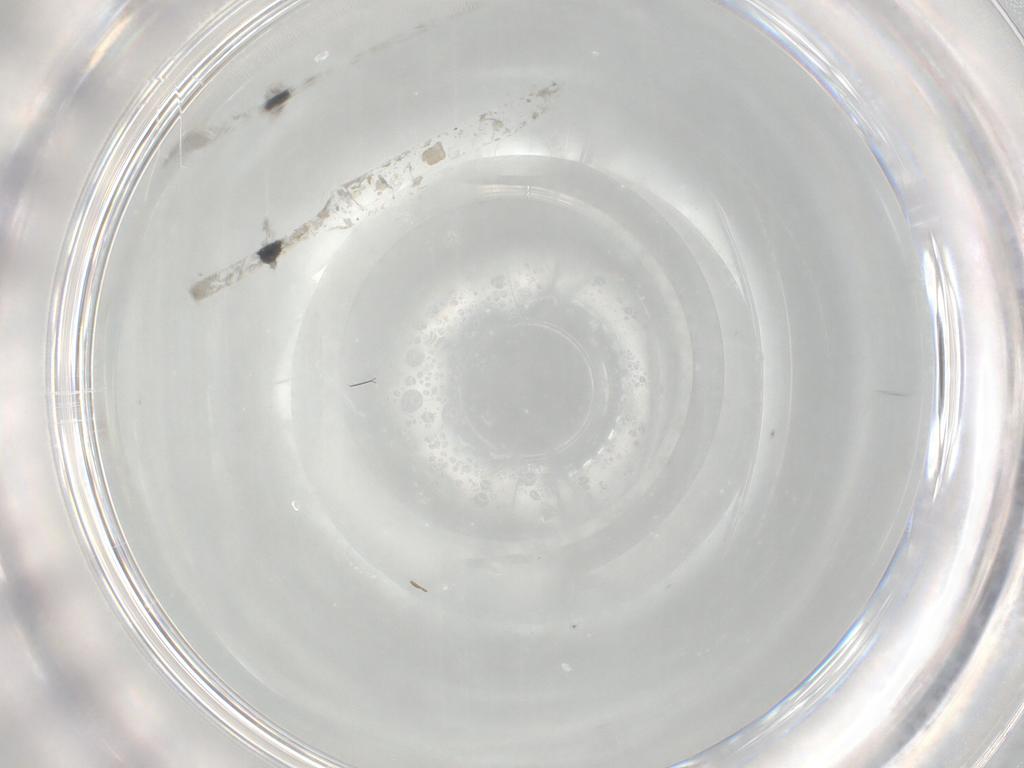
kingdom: Animalia
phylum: Arthropoda
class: Insecta
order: Hymenoptera
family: Mymaridae
